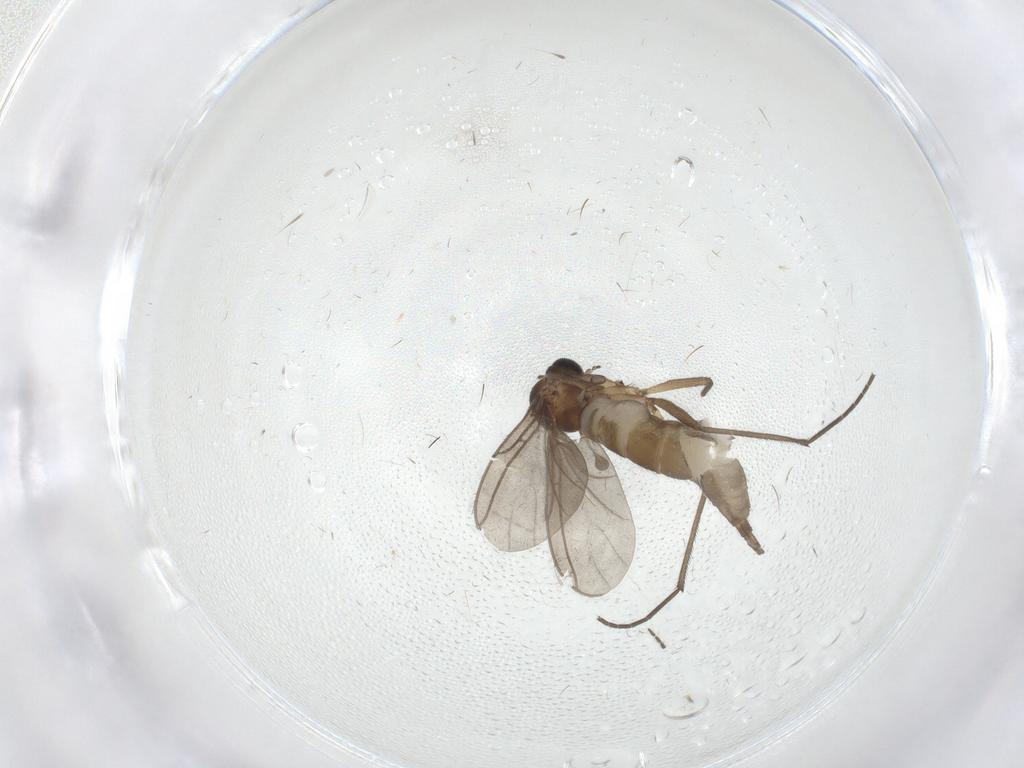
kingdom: Animalia
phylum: Arthropoda
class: Insecta
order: Diptera
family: Sciaridae
